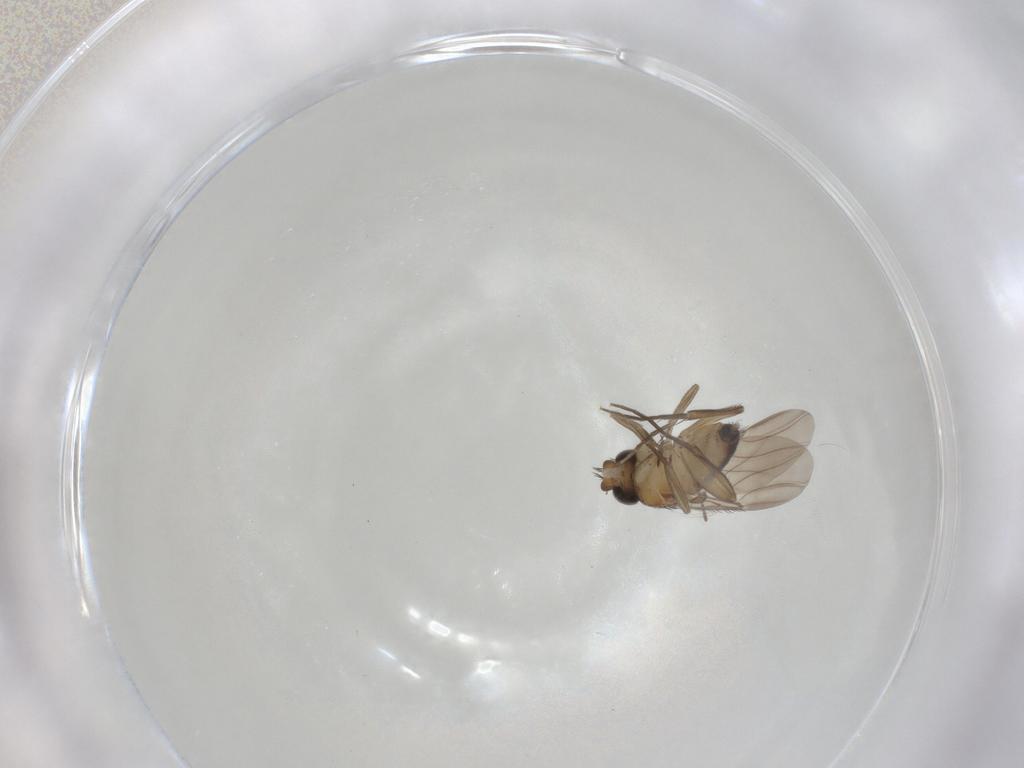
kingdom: Animalia
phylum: Arthropoda
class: Insecta
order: Diptera
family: Phoridae
